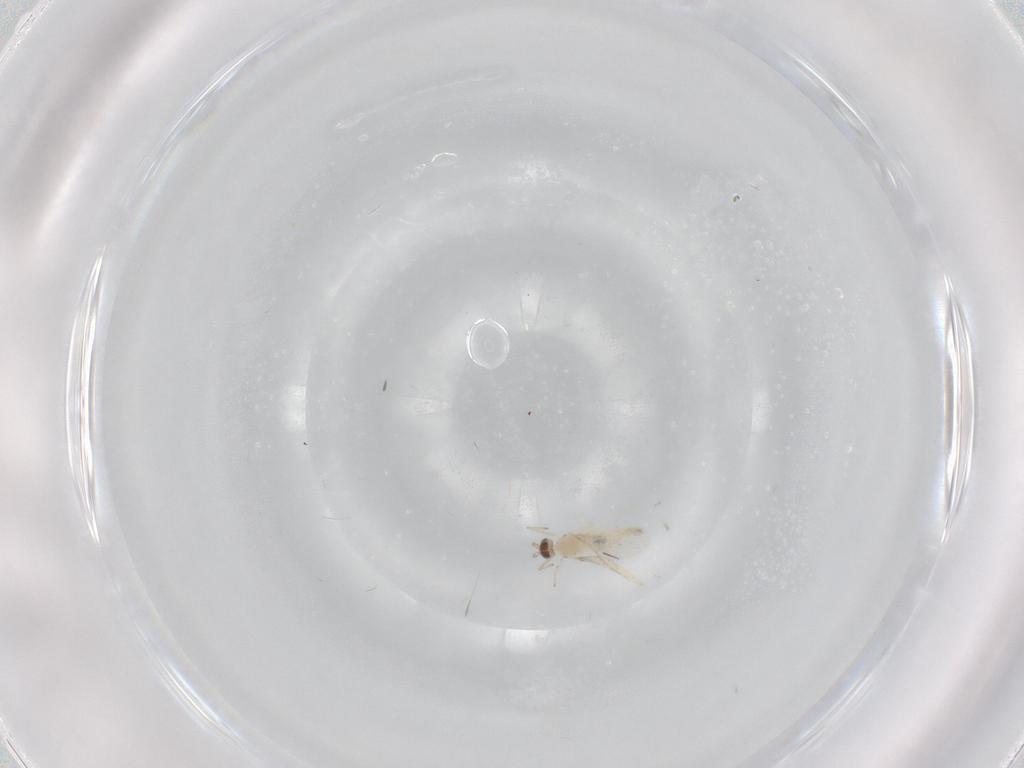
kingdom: Animalia
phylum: Arthropoda
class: Insecta
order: Diptera
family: Cecidomyiidae
